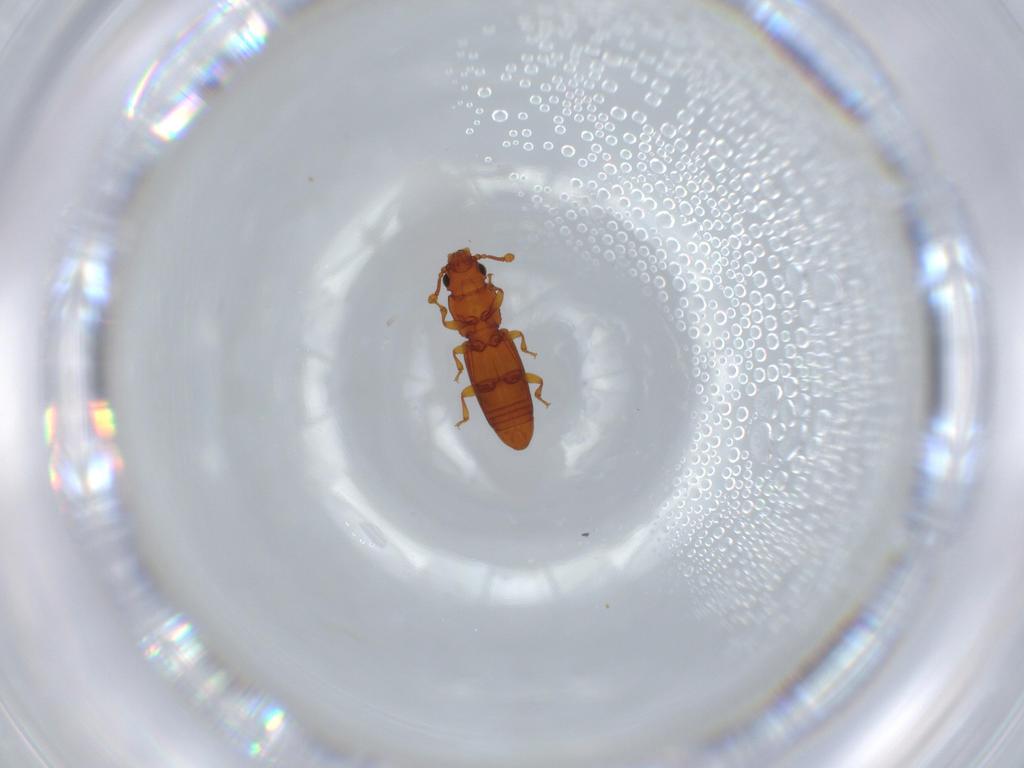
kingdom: Animalia
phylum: Arthropoda
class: Insecta
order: Coleoptera
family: Monotomidae
